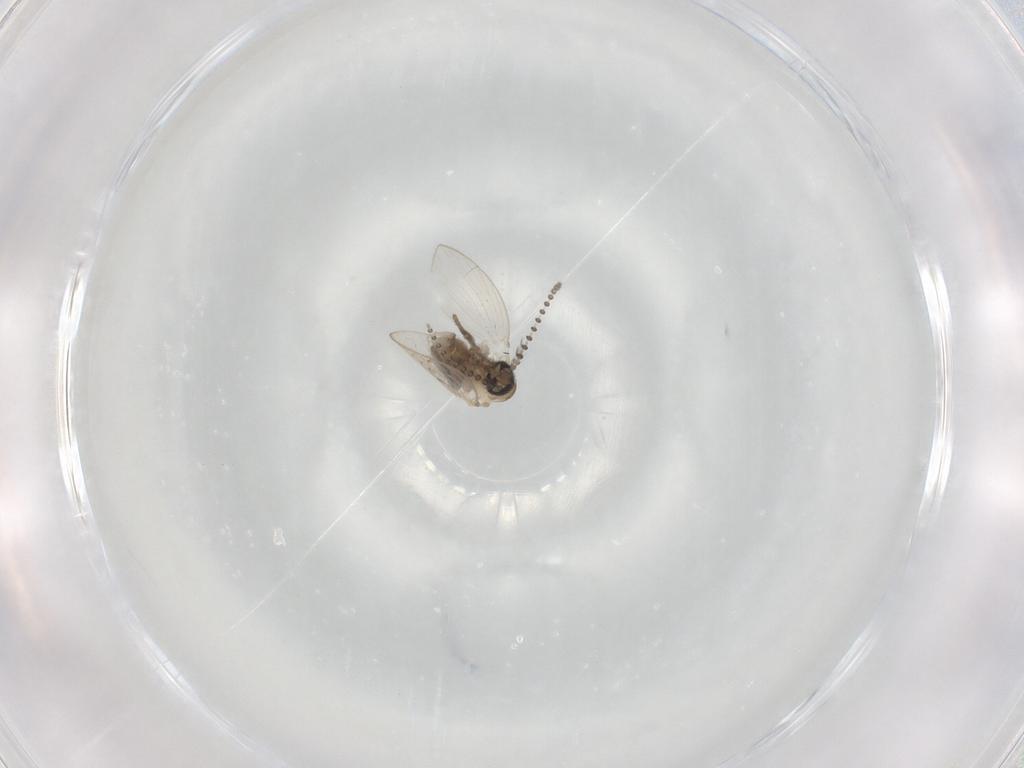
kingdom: Animalia
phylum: Arthropoda
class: Insecta
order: Diptera
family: Psychodidae
